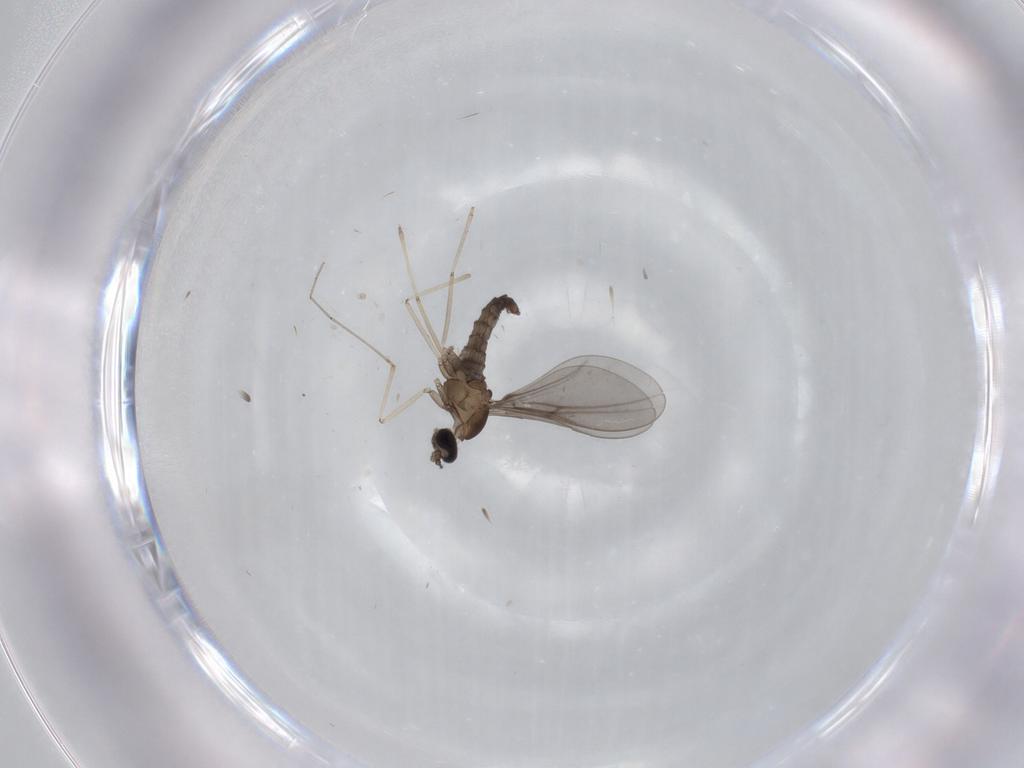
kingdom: Animalia
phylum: Arthropoda
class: Insecta
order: Diptera
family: Cecidomyiidae
